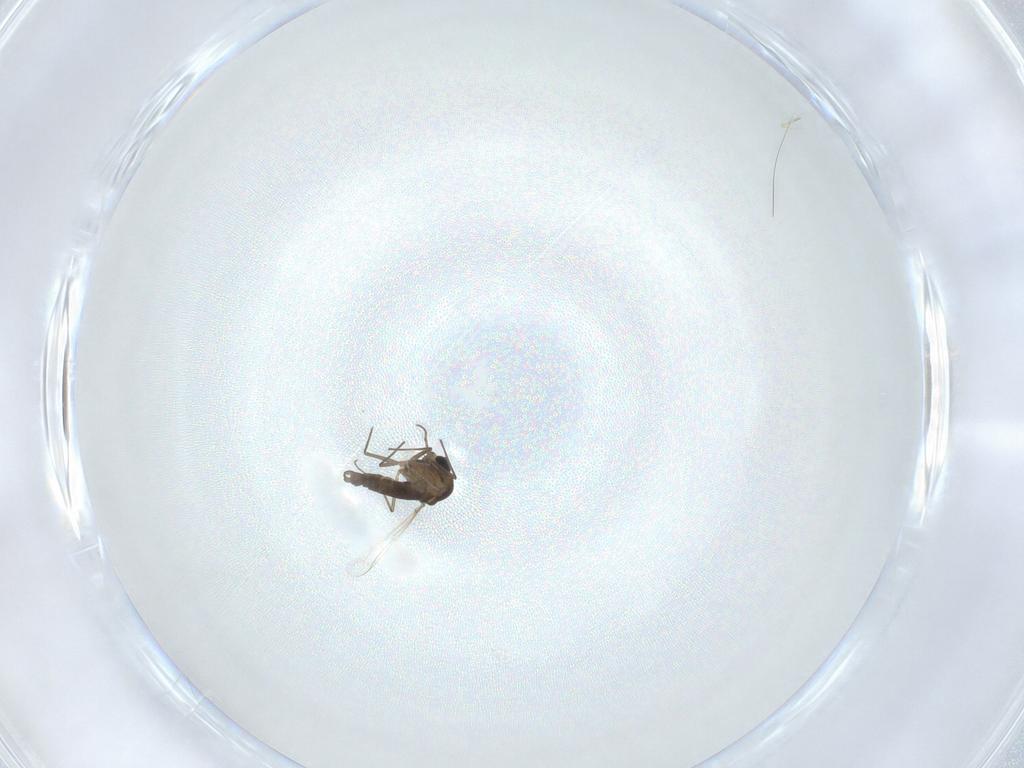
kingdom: Animalia
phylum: Arthropoda
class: Insecta
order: Diptera
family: Chironomidae
